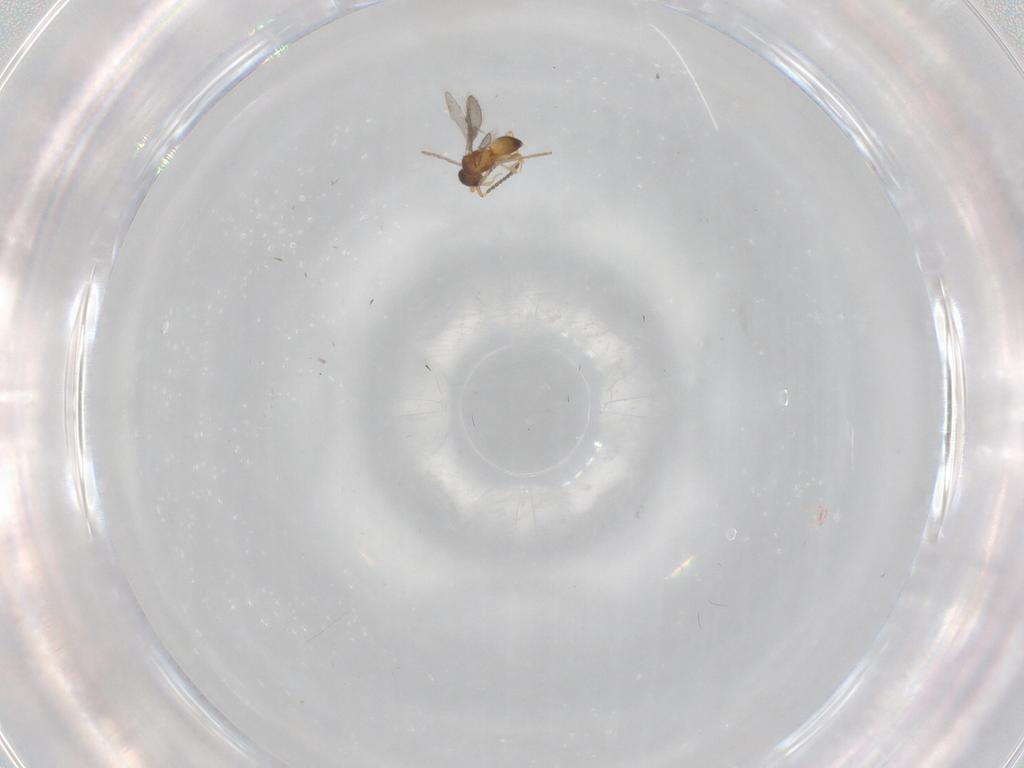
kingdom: Animalia
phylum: Arthropoda
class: Insecta
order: Hymenoptera
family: Ceraphronidae
